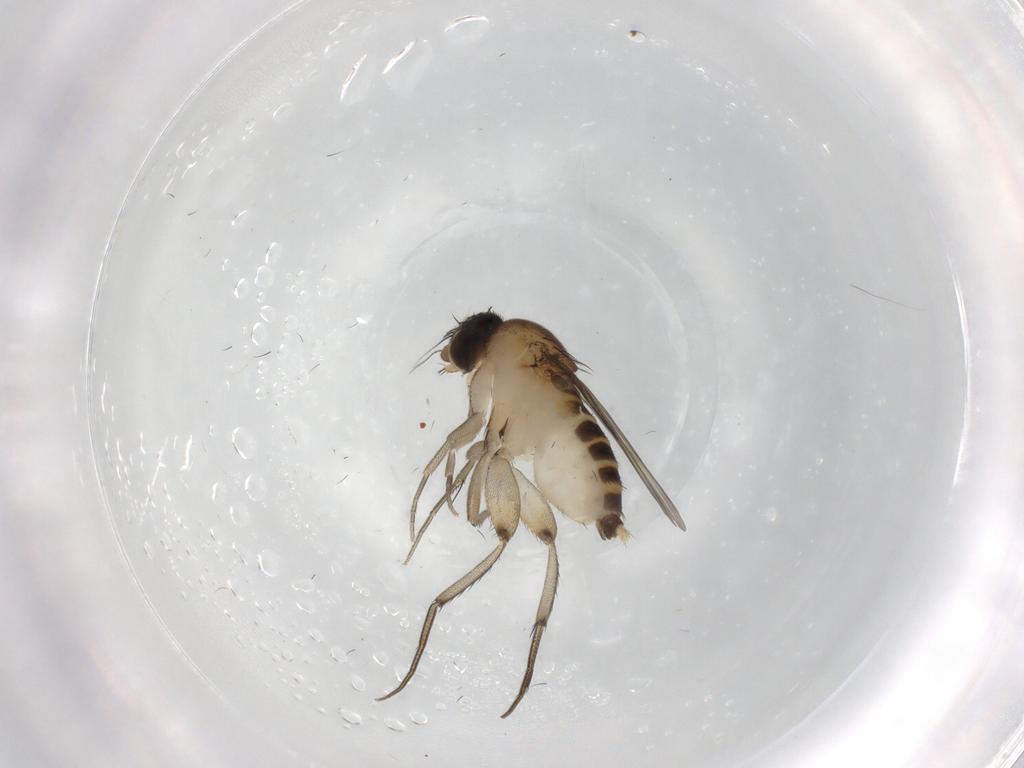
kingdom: Animalia
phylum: Arthropoda
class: Insecta
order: Diptera
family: Phoridae
